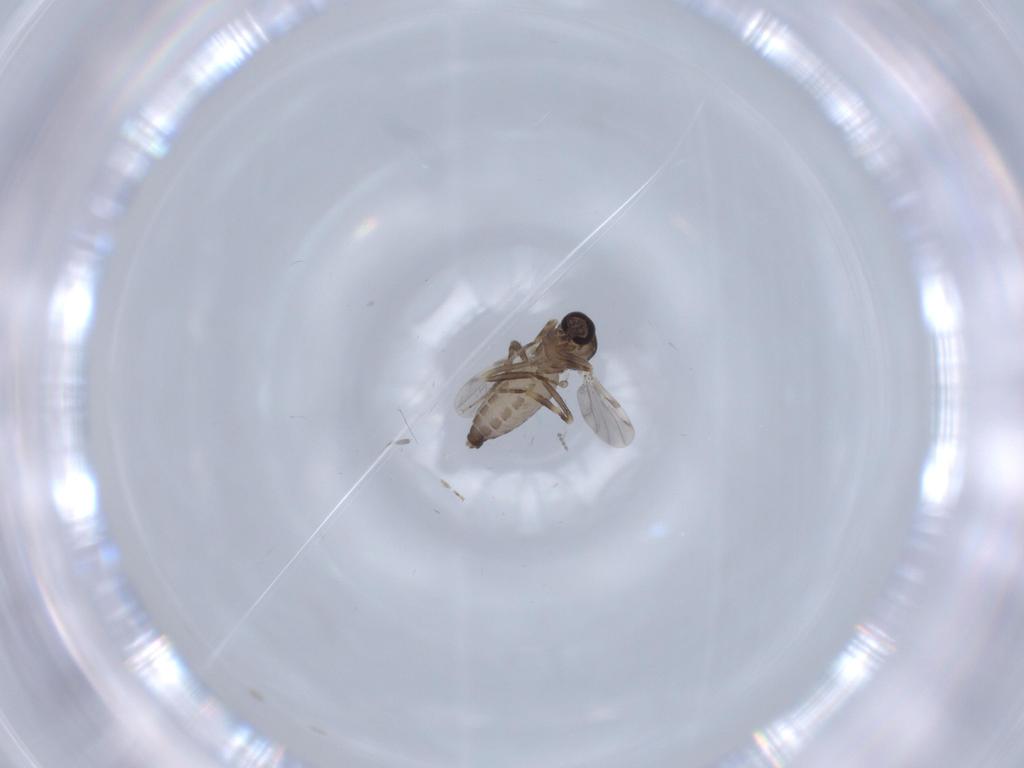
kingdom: Animalia
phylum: Arthropoda
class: Insecta
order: Diptera
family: Ceratopogonidae
